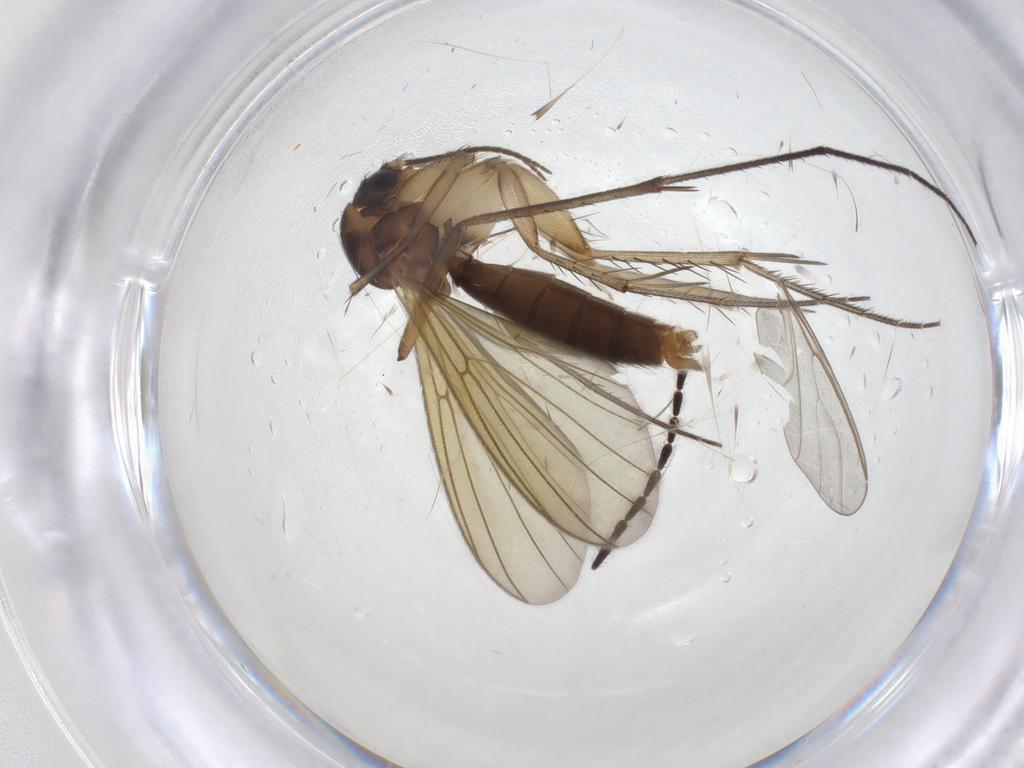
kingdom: Animalia
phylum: Arthropoda
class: Insecta
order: Diptera
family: Mycetophilidae
